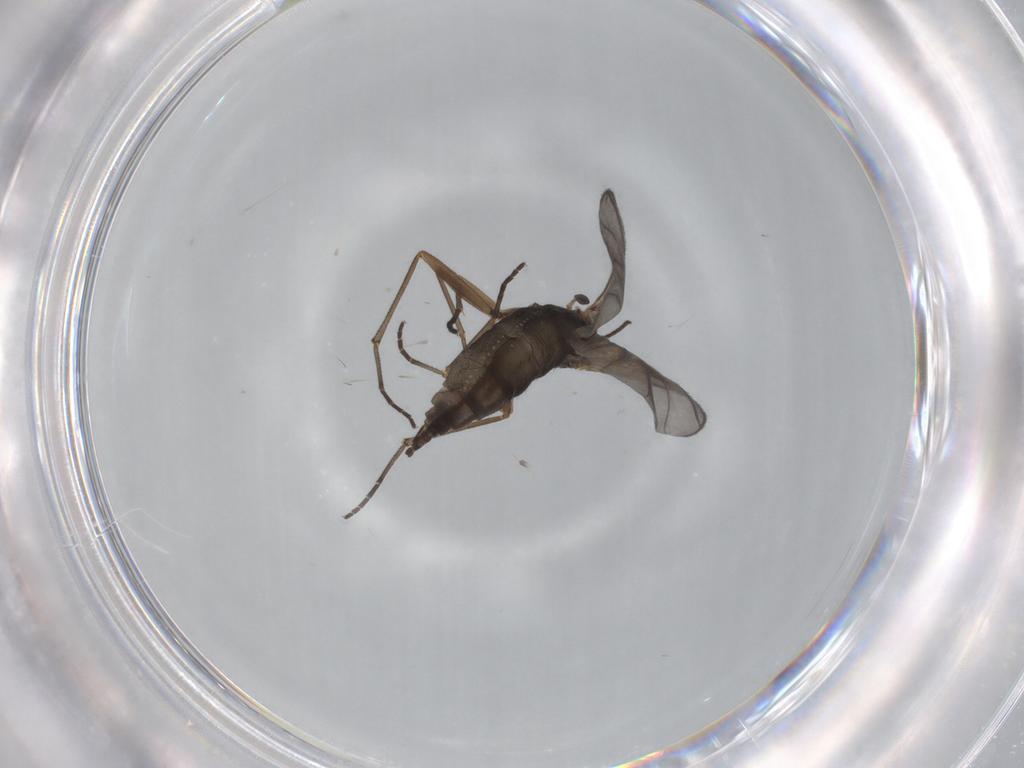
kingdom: Animalia
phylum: Arthropoda
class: Insecta
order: Diptera
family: Sciaridae
